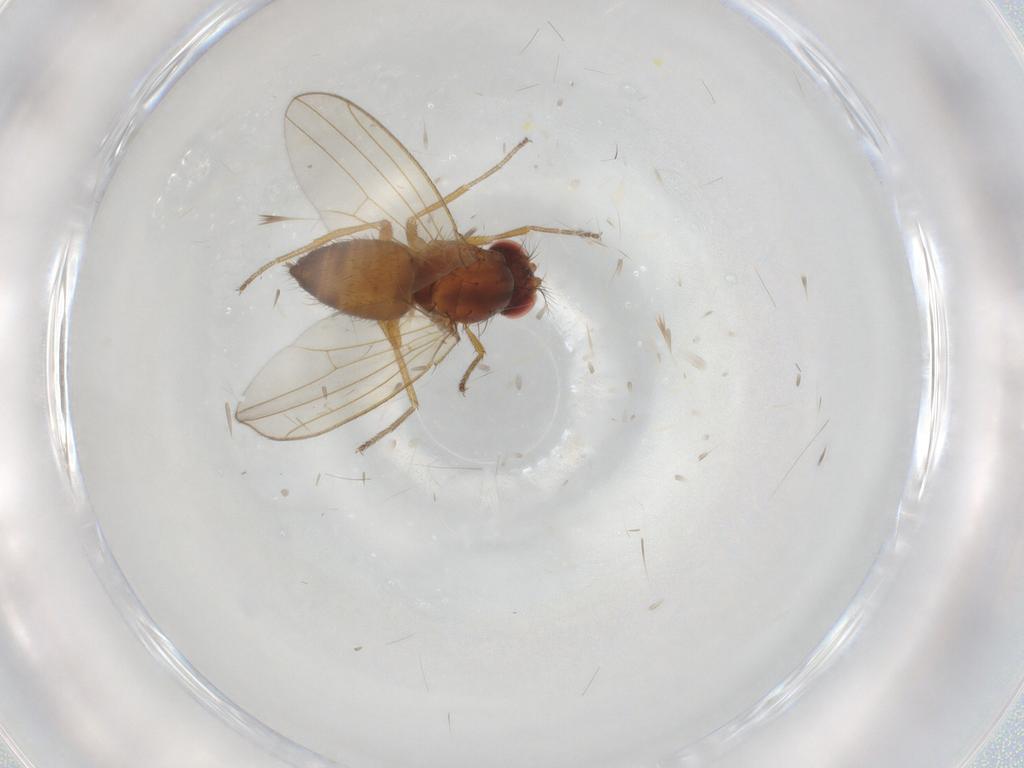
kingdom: Animalia
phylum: Arthropoda
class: Insecta
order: Diptera
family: Drosophilidae
